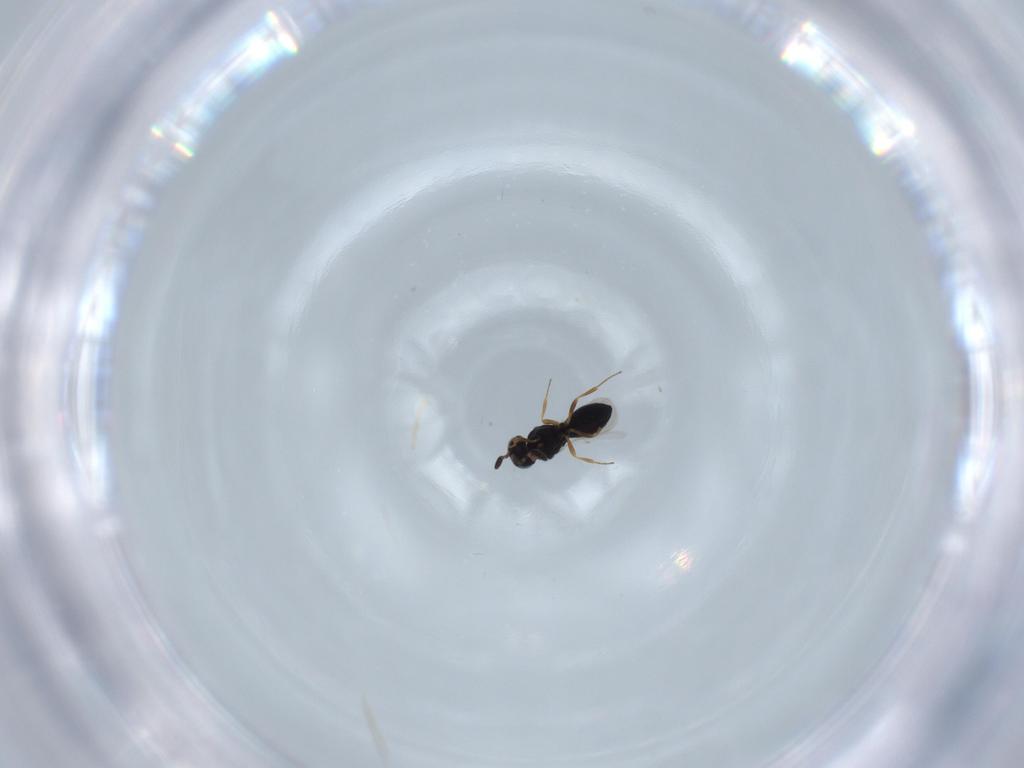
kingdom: Animalia
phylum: Arthropoda
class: Insecta
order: Hymenoptera
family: Scelionidae
